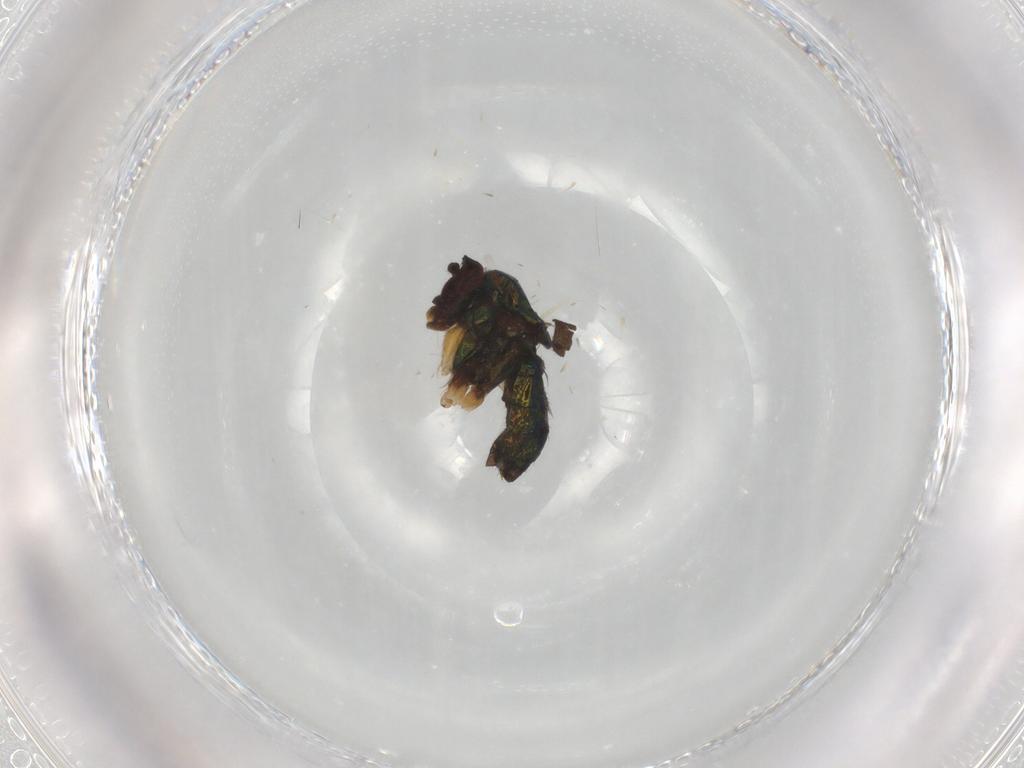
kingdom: Animalia
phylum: Arthropoda
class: Insecta
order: Diptera
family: Dolichopodidae
